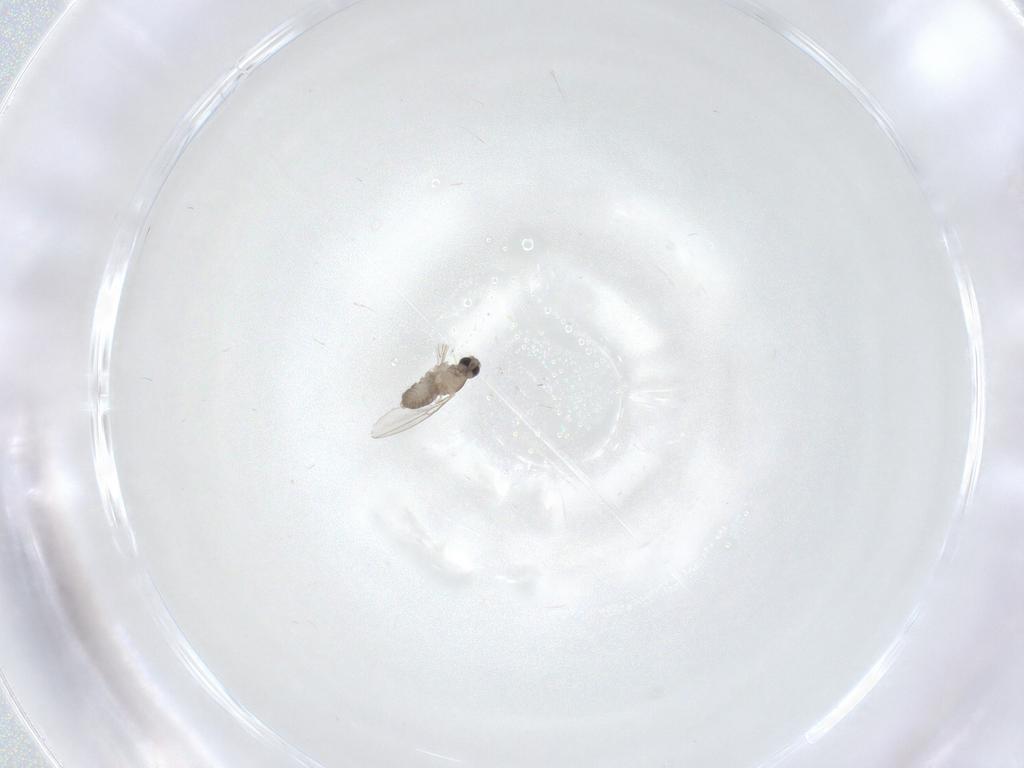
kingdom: Animalia
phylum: Arthropoda
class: Insecta
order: Diptera
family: Cecidomyiidae
